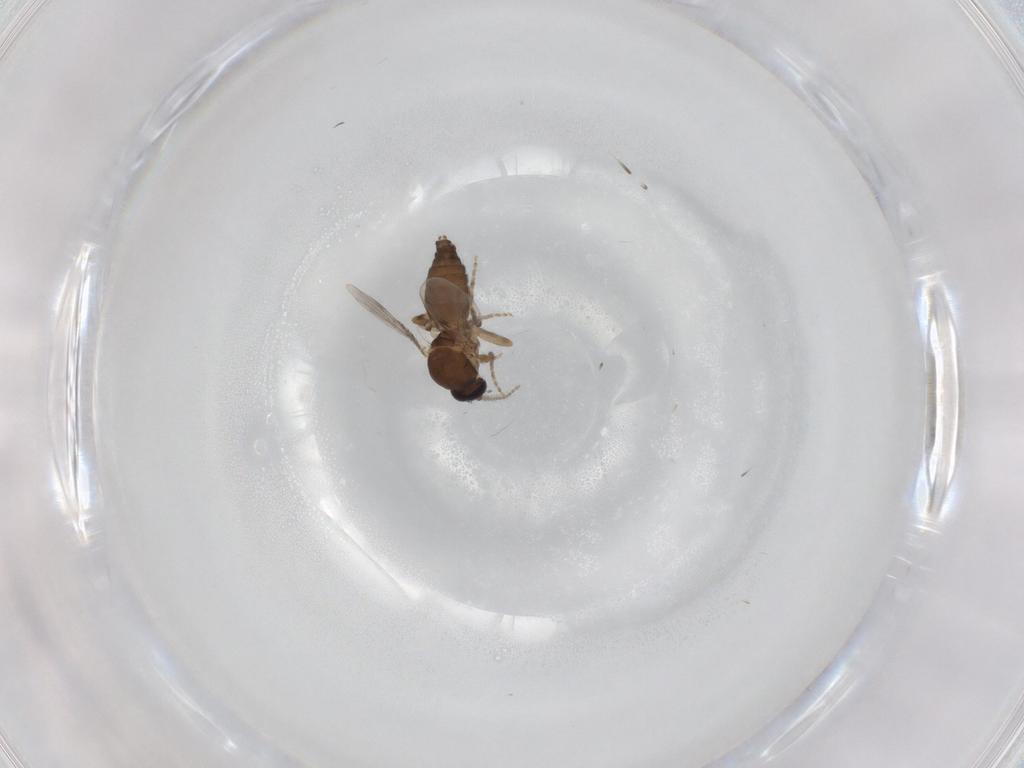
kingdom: Animalia
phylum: Arthropoda
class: Insecta
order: Diptera
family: Ceratopogonidae
